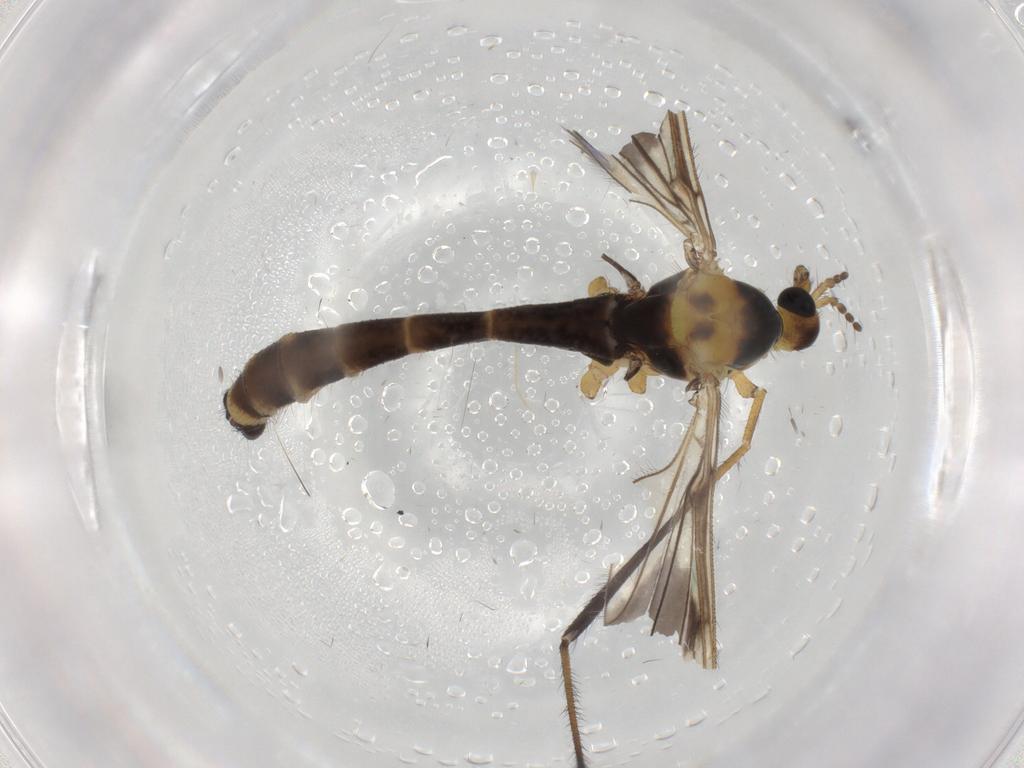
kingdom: Animalia
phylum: Arthropoda
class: Insecta
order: Diptera
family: Limoniidae
